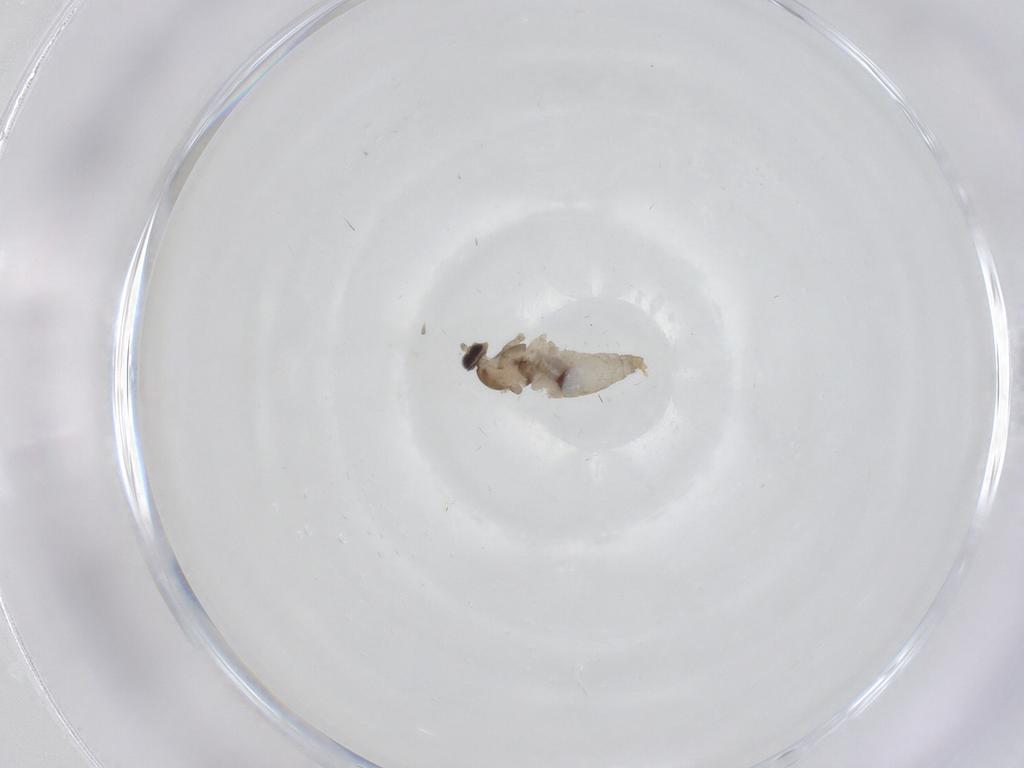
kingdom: Animalia
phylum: Arthropoda
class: Insecta
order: Diptera
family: Cecidomyiidae
